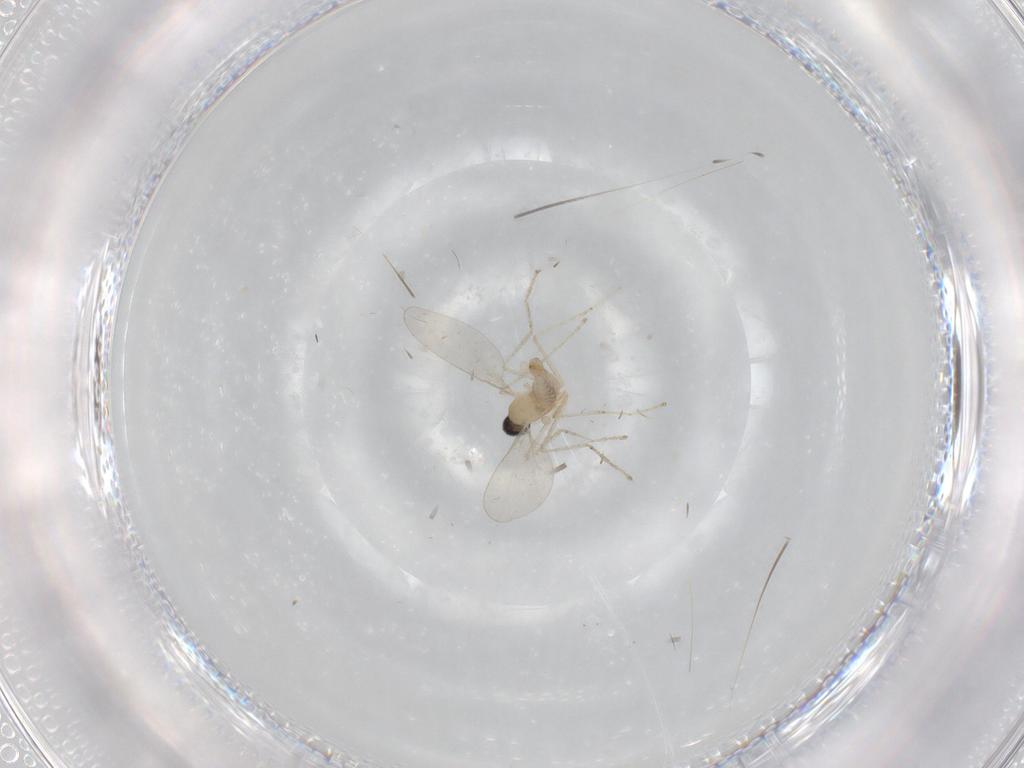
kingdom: Animalia
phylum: Arthropoda
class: Insecta
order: Diptera
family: Cecidomyiidae
